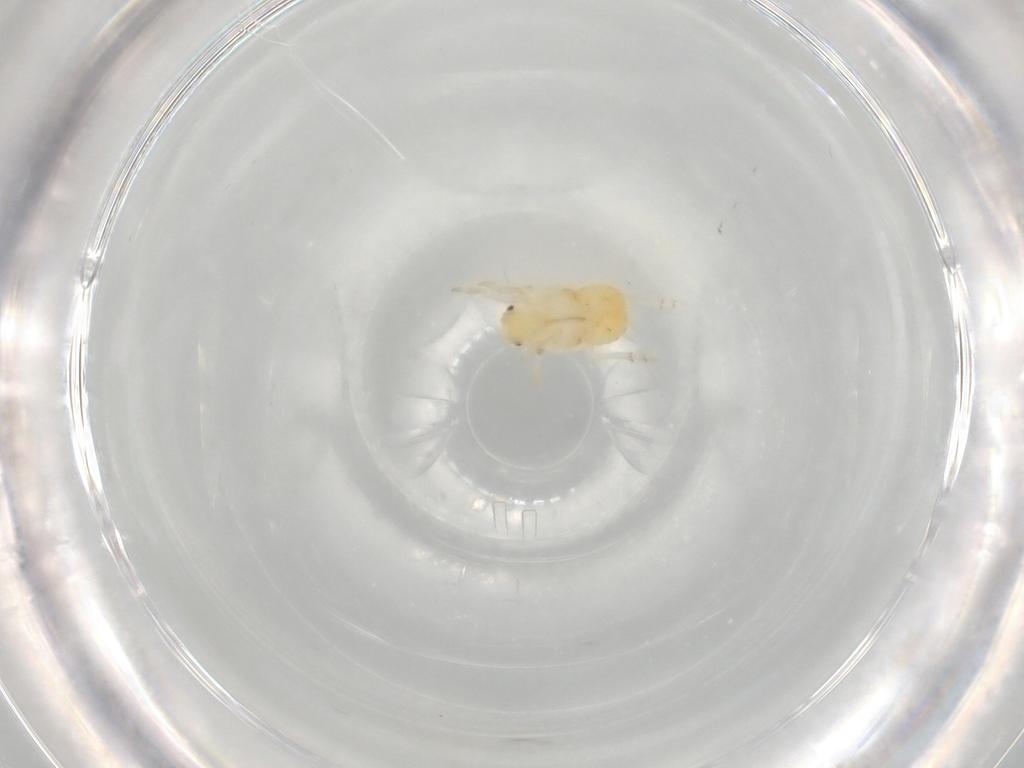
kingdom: Animalia
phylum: Arthropoda
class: Insecta
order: Hemiptera
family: Flatidae
